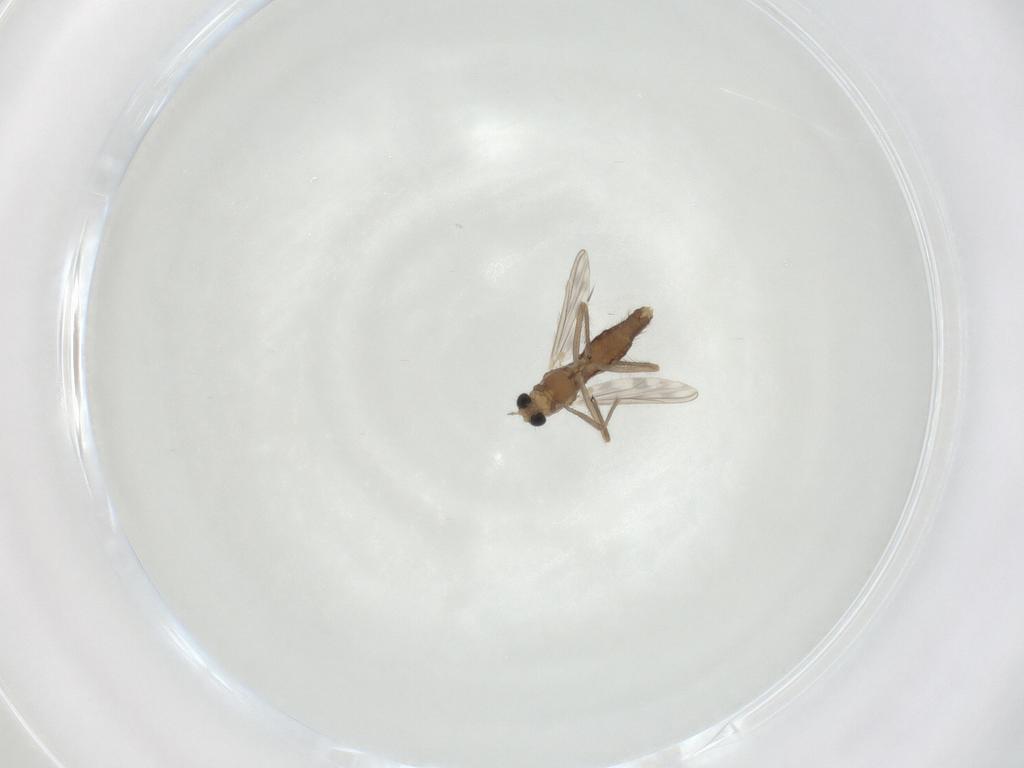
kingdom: Animalia
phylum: Arthropoda
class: Insecta
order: Diptera
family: Chironomidae
